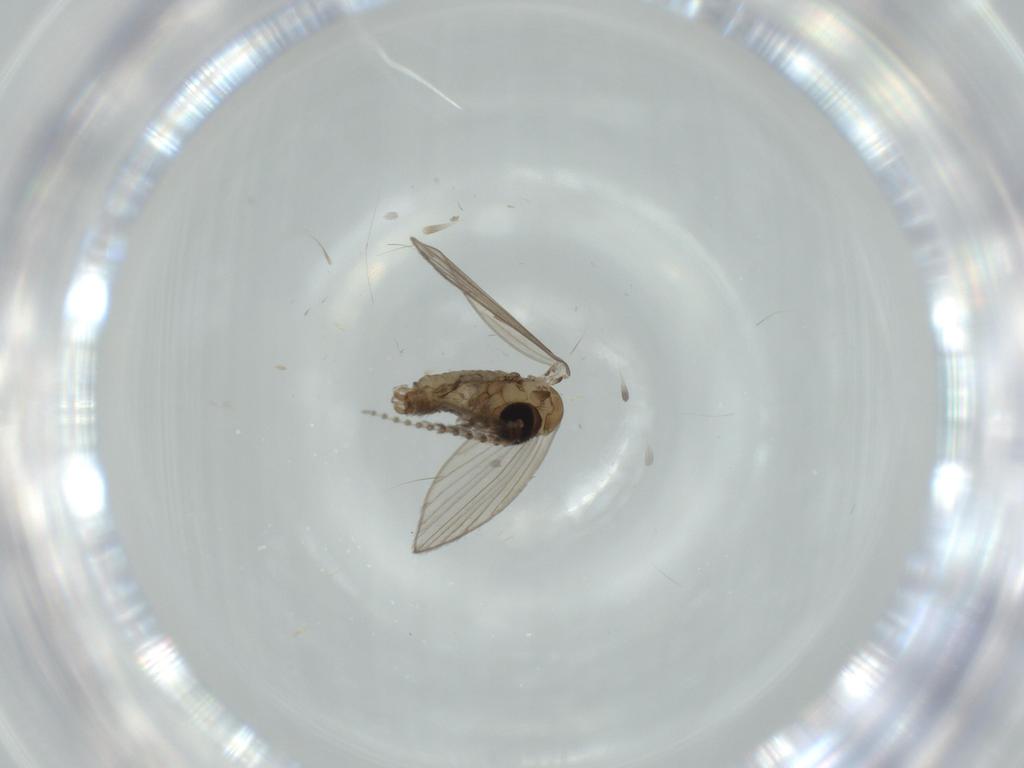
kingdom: Animalia
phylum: Arthropoda
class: Insecta
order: Diptera
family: Psychodidae
